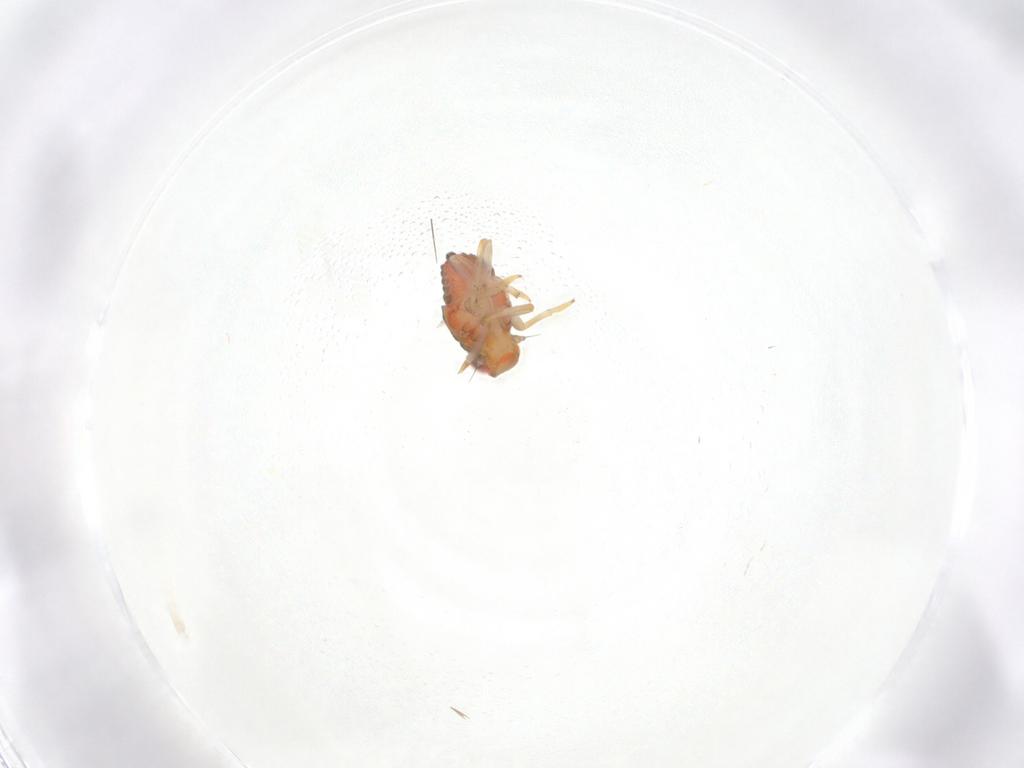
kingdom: Animalia
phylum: Arthropoda
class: Insecta
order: Hemiptera
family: Issidae
